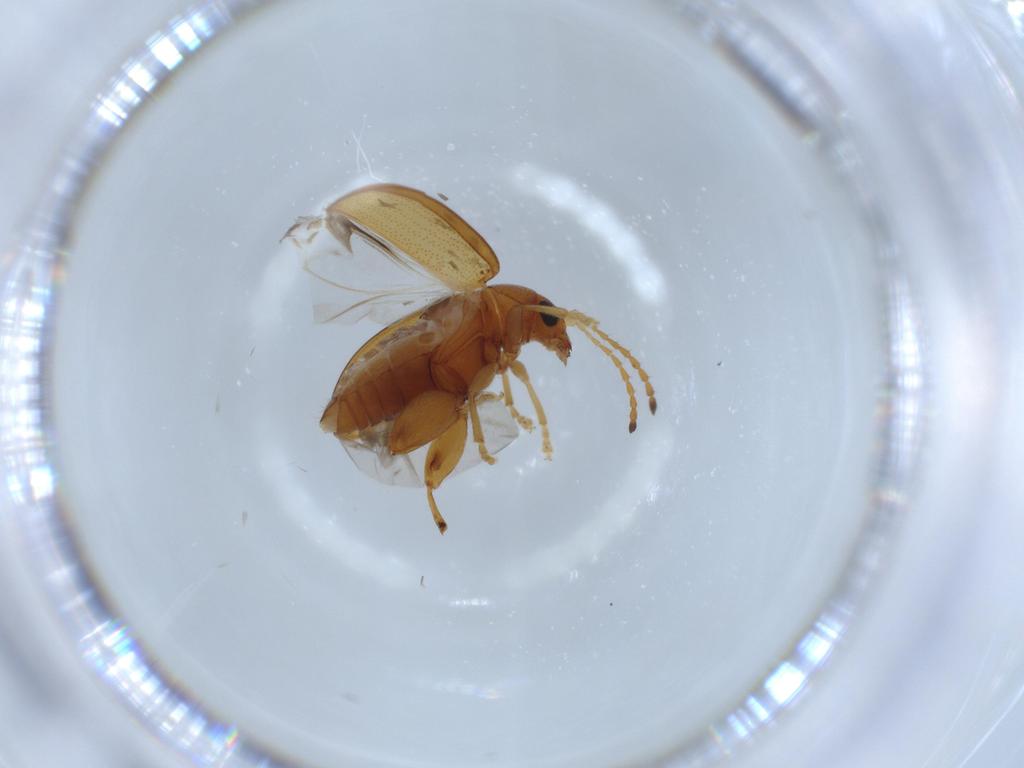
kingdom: Animalia
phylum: Arthropoda
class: Insecta
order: Coleoptera
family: Chrysomelidae
